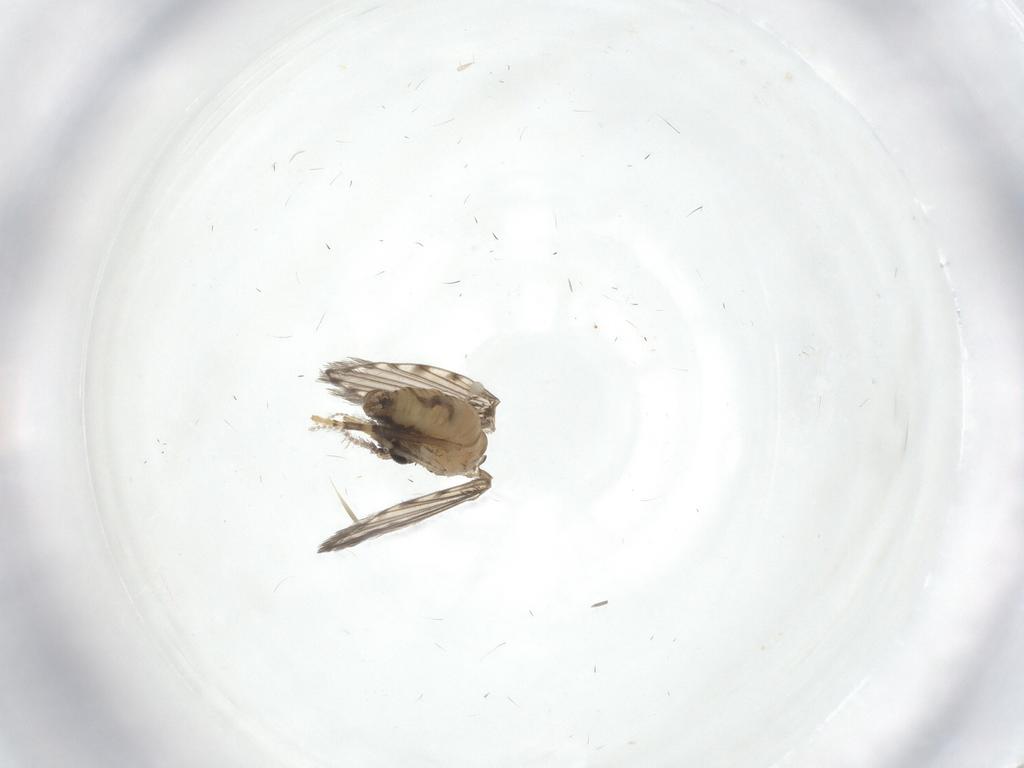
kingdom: Animalia
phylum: Arthropoda
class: Insecta
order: Diptera
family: Psychodidae
